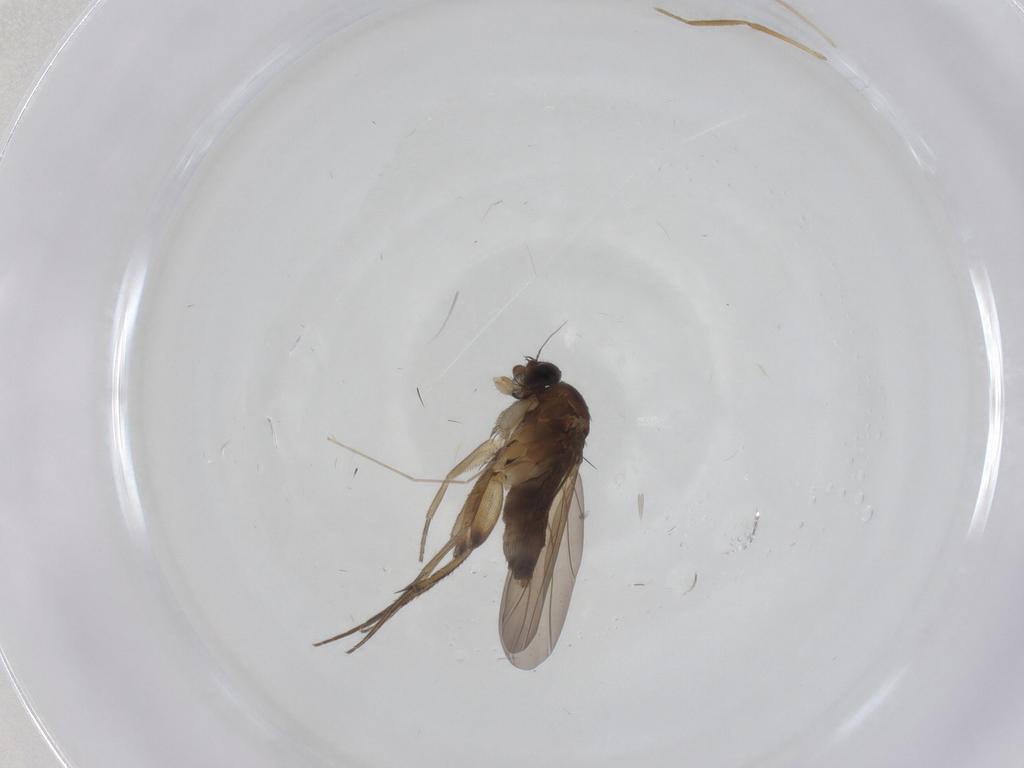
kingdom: Animalia
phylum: Arthropoda
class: Insecta
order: Diptera
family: Phoridae
